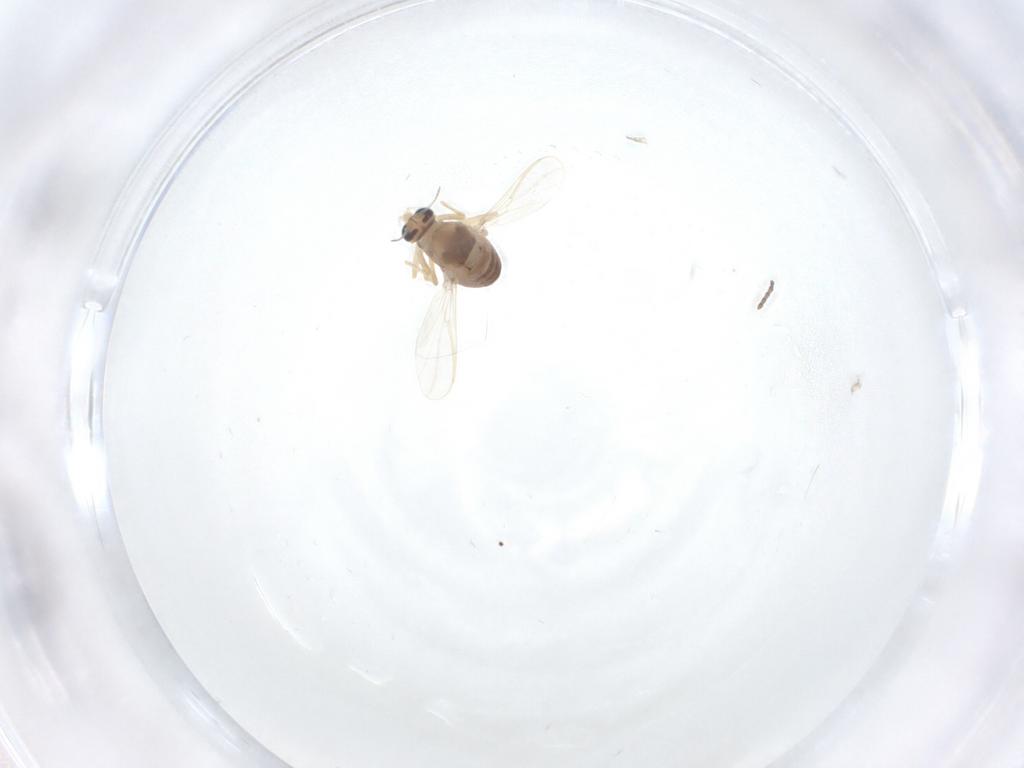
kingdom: Animalia
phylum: Arthropoda
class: Insecta
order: Diptera
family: Chironomidae
